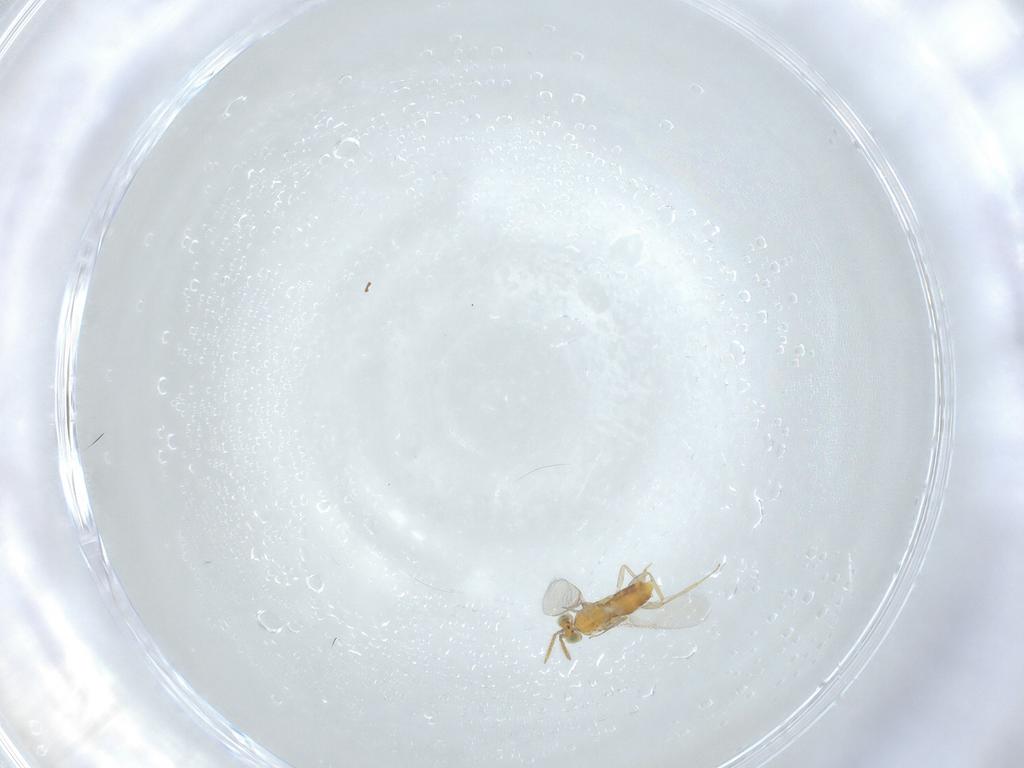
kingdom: Animalia
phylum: Arthropoda
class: Insecta
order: Hymenoptera
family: Aphelinidae
